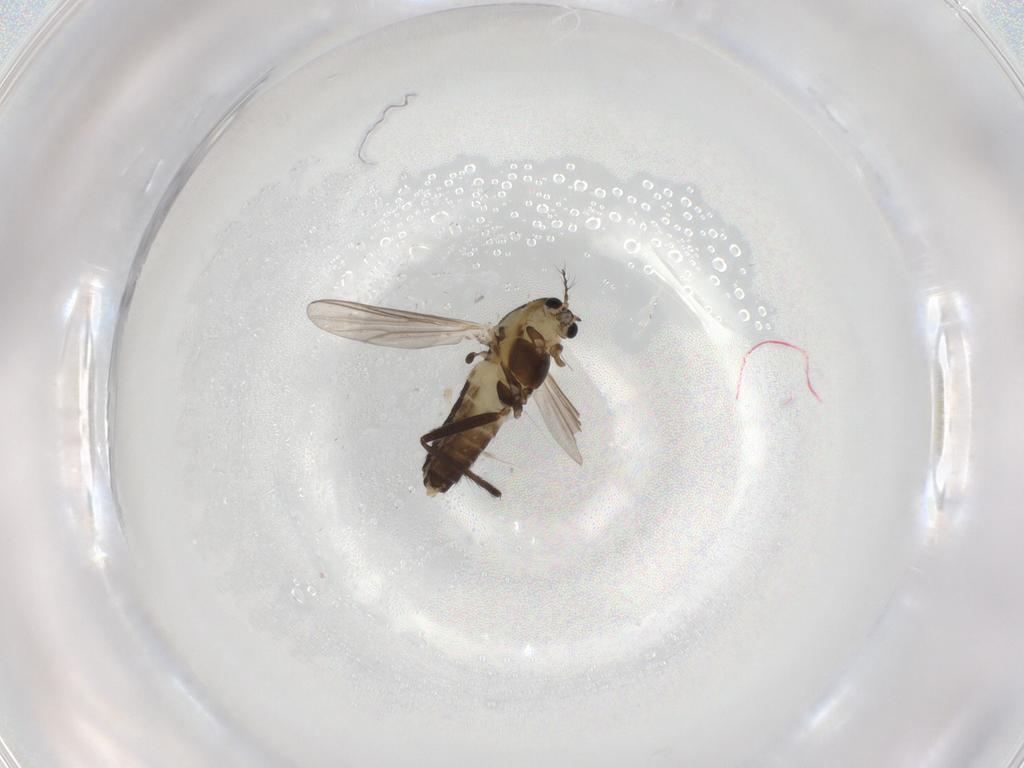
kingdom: Animalia
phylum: Arthropoda
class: Insecta
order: Diptera
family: Chironomidae
